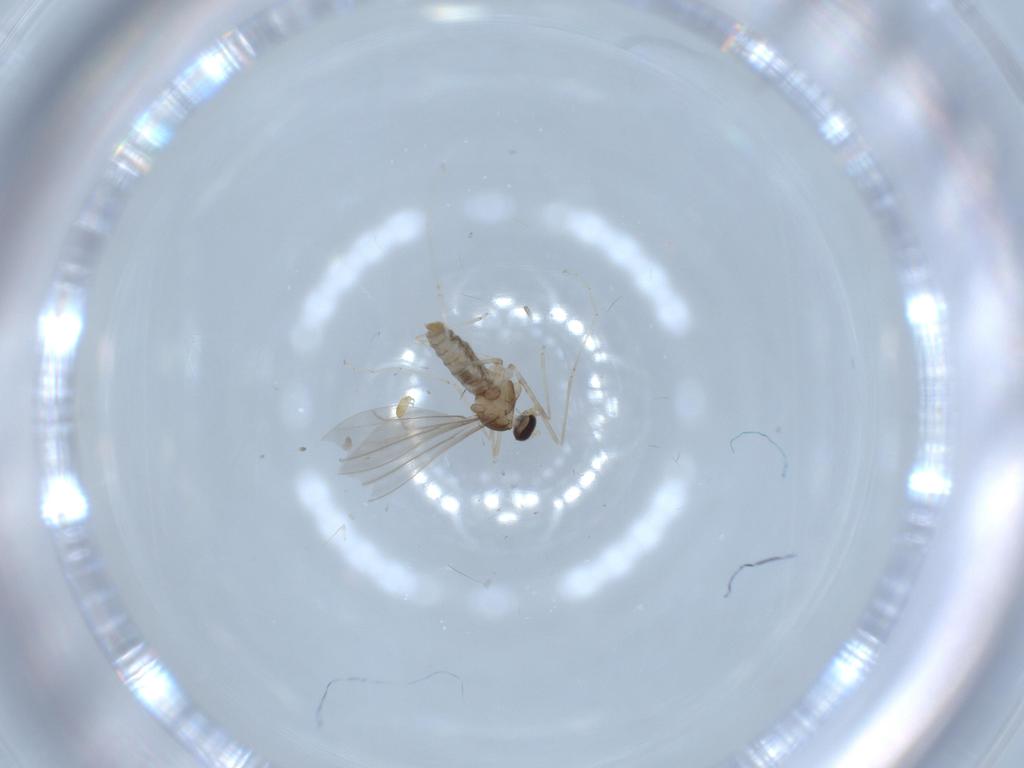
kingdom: Animalia
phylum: Arthropoda
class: Insecta
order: Diptera
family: Cecidomyiidae
